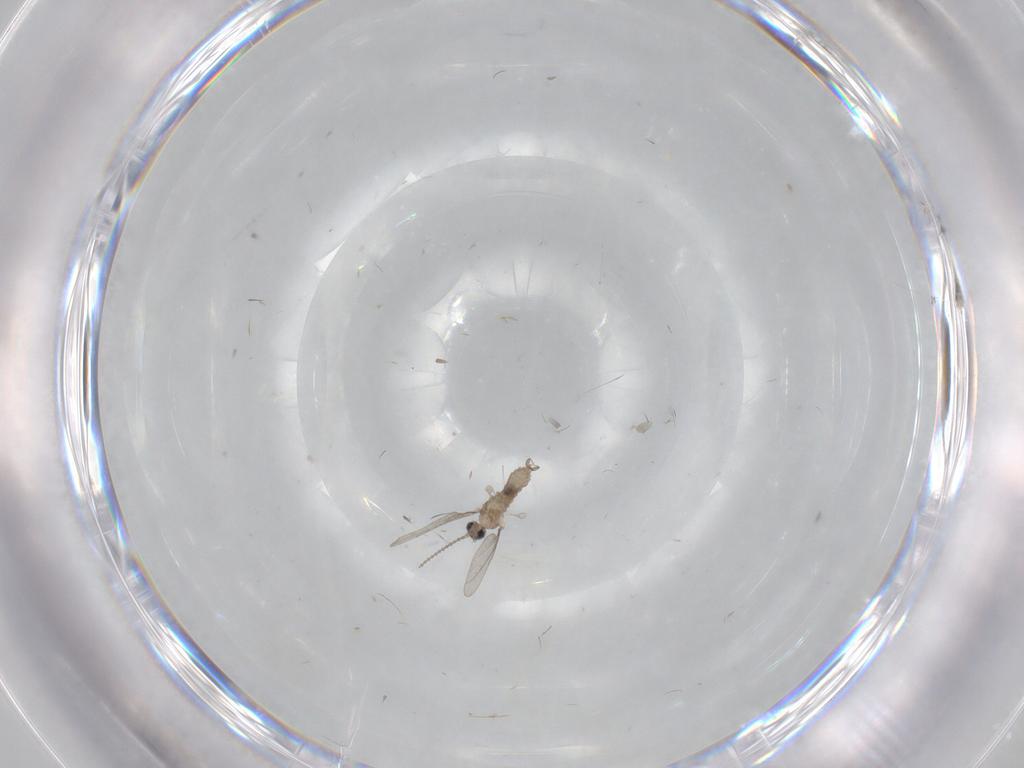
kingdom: Animalia
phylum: Arthropoda
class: Insecta
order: Diptera
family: Cecidomyiidae
